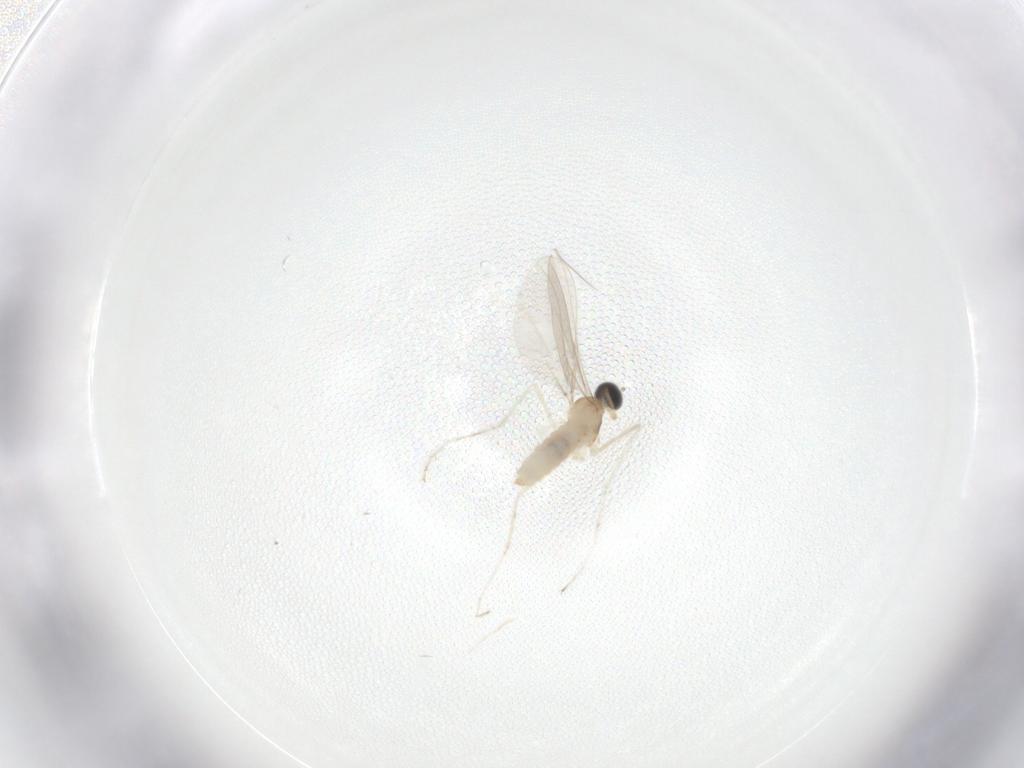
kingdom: Animalia
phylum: Arthropoda
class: Insecta
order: Diptera
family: Cecidomyiidae
